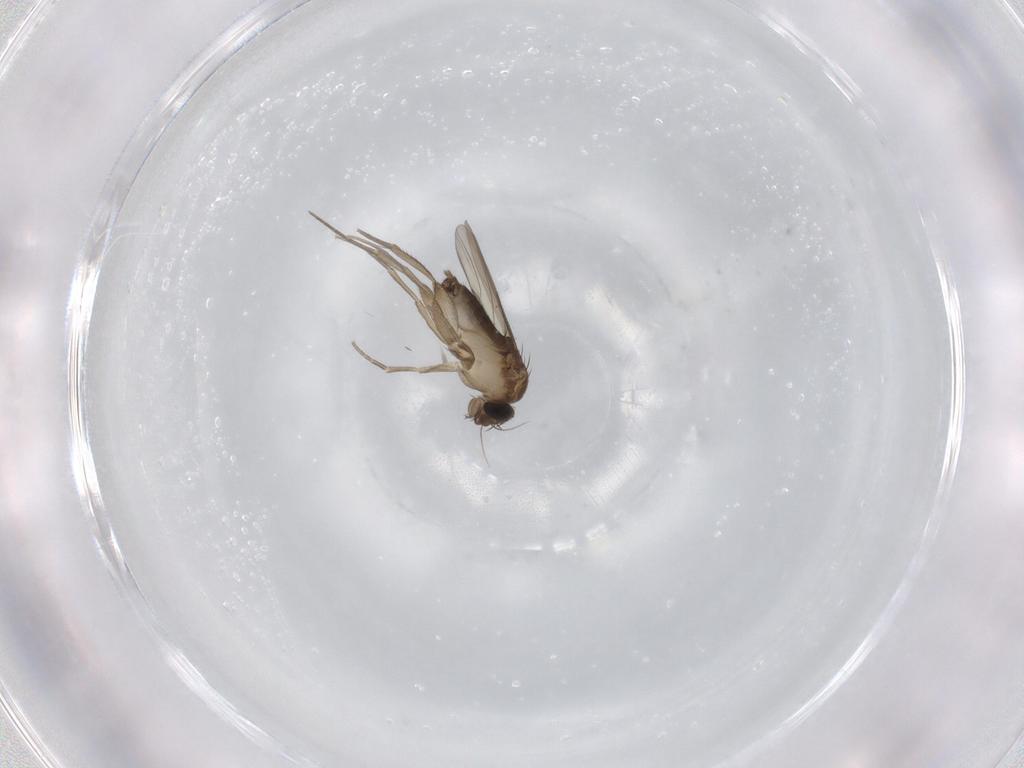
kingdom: Animalia
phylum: Arthropoda
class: Insecta
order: Diptera
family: Phoridae
